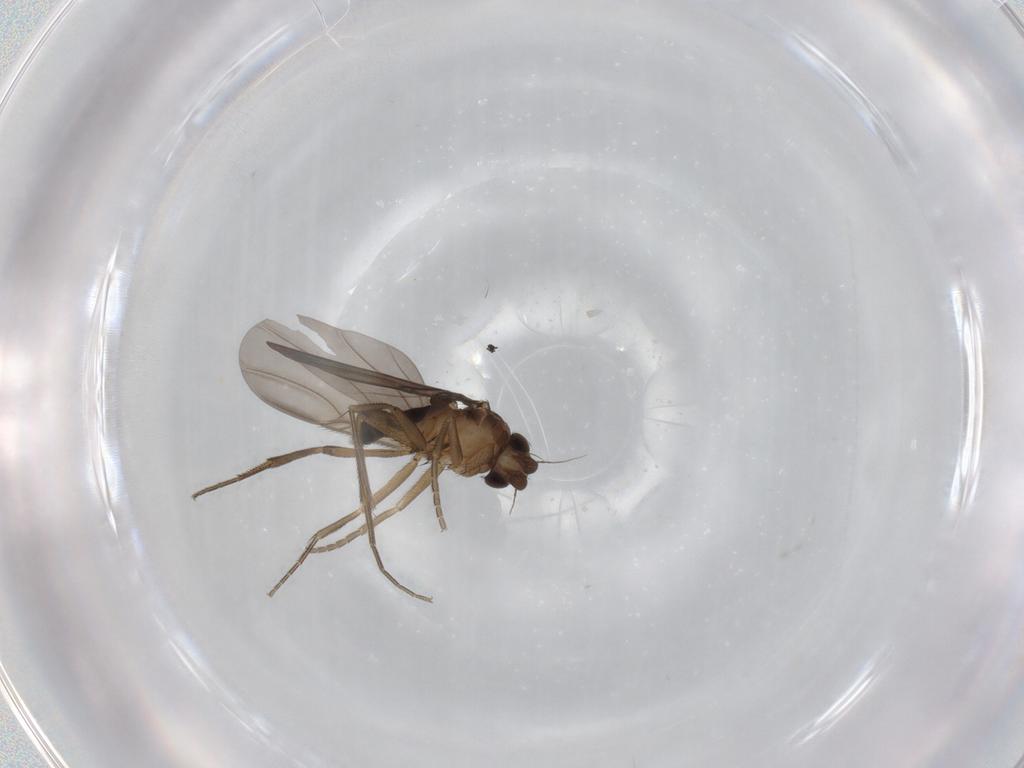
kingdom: Animalia
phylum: Arthropoda
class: Insecta
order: Diptera
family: Phoridae
